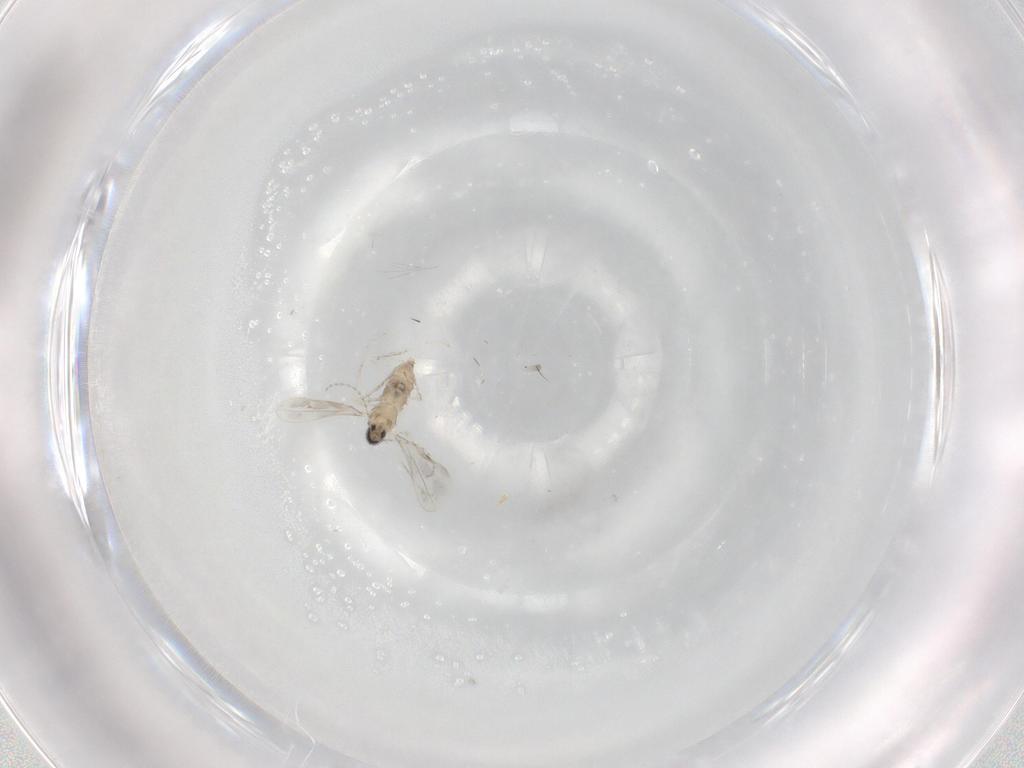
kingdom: Animalia
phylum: Arthropoda
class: Insecta
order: Diptera
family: Cecidomyiidae
